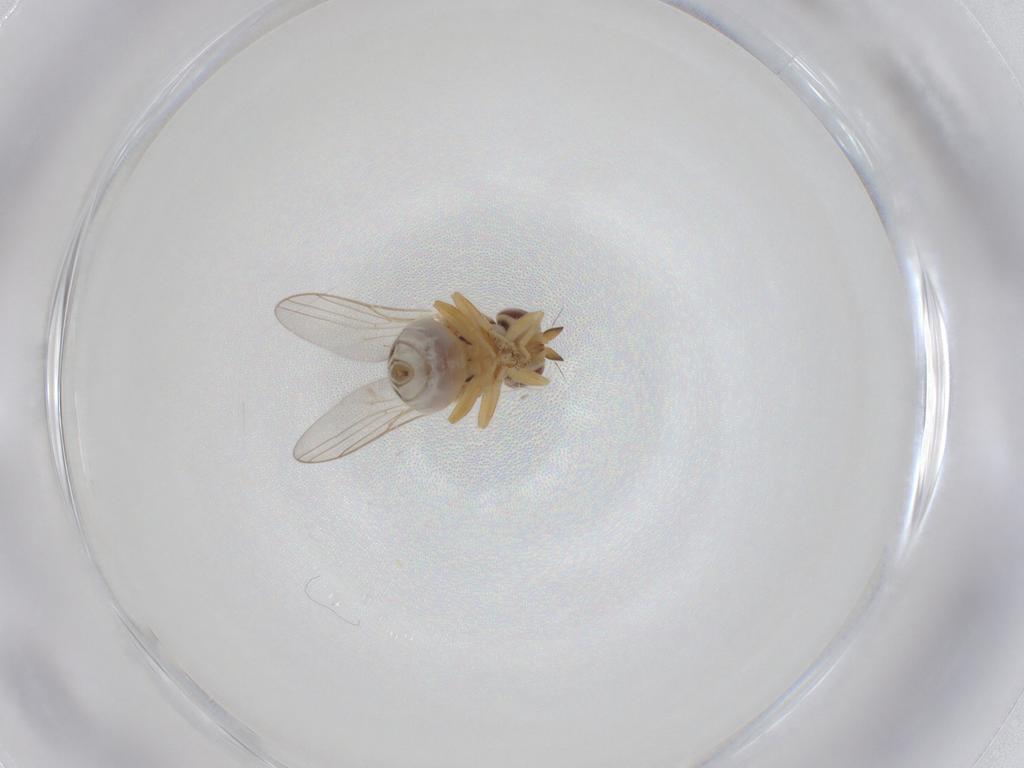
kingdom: Animalia
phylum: Arthropoda
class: Insecta
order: Diptera
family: Chloropidae
